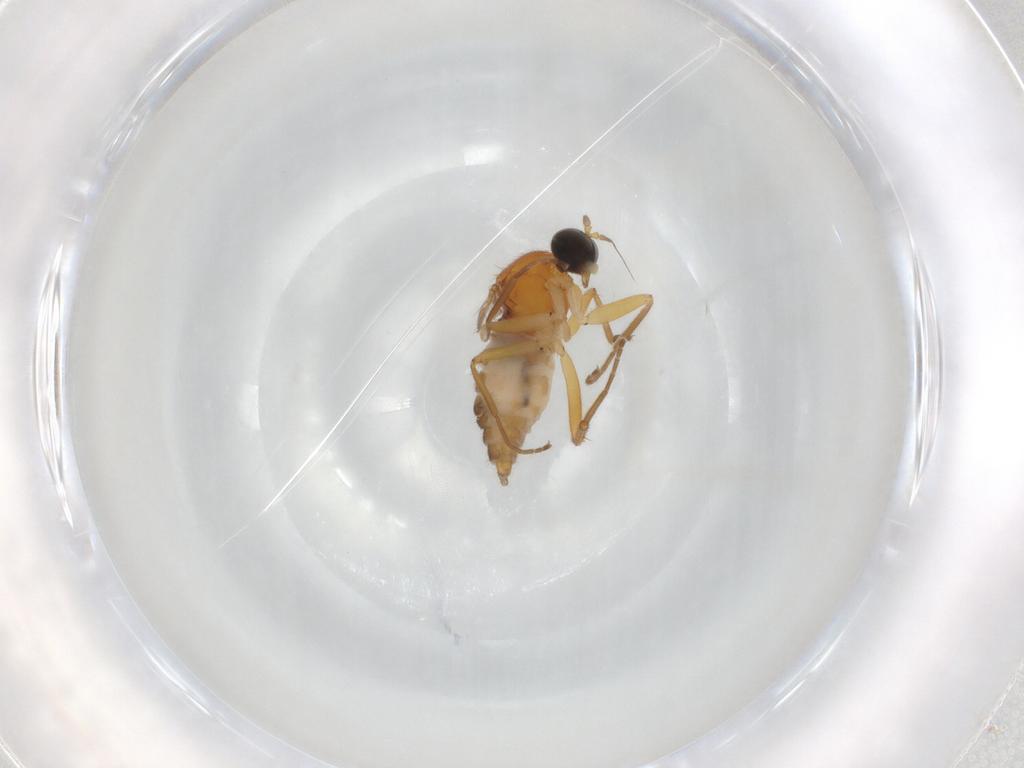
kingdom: Animalia
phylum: Arthropoda
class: Insecta
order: Diptera
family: Hybotidae
